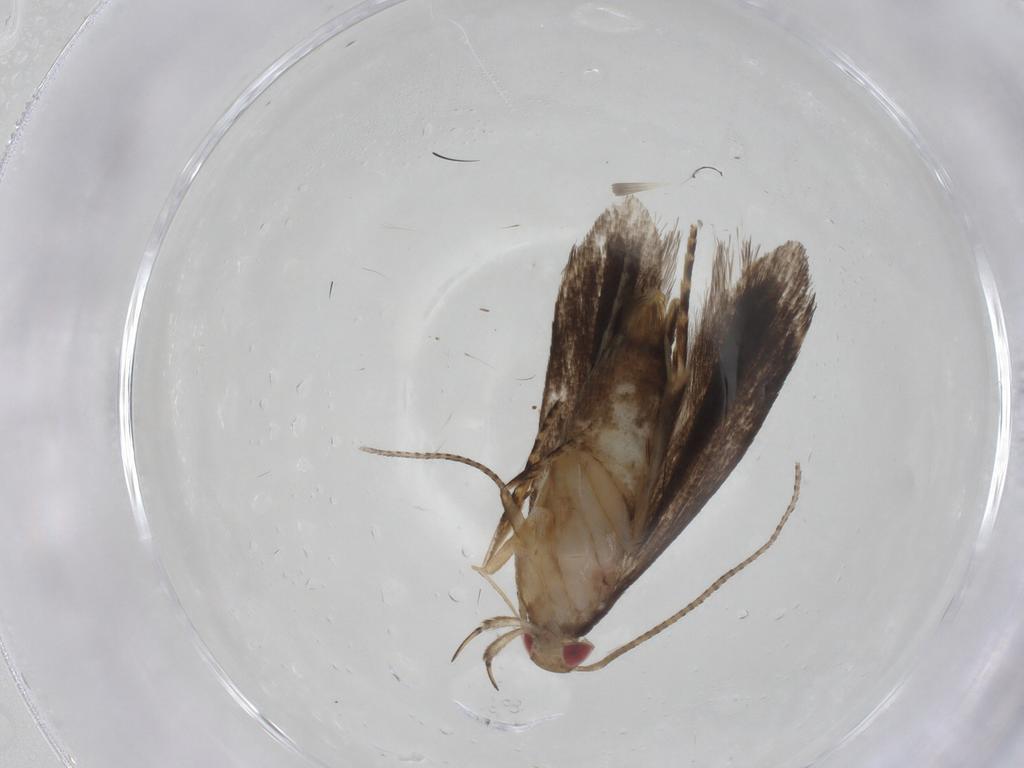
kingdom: Animalia
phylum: Arthropoda
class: Insecta
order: Lepidoptera
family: Gelechiidae
